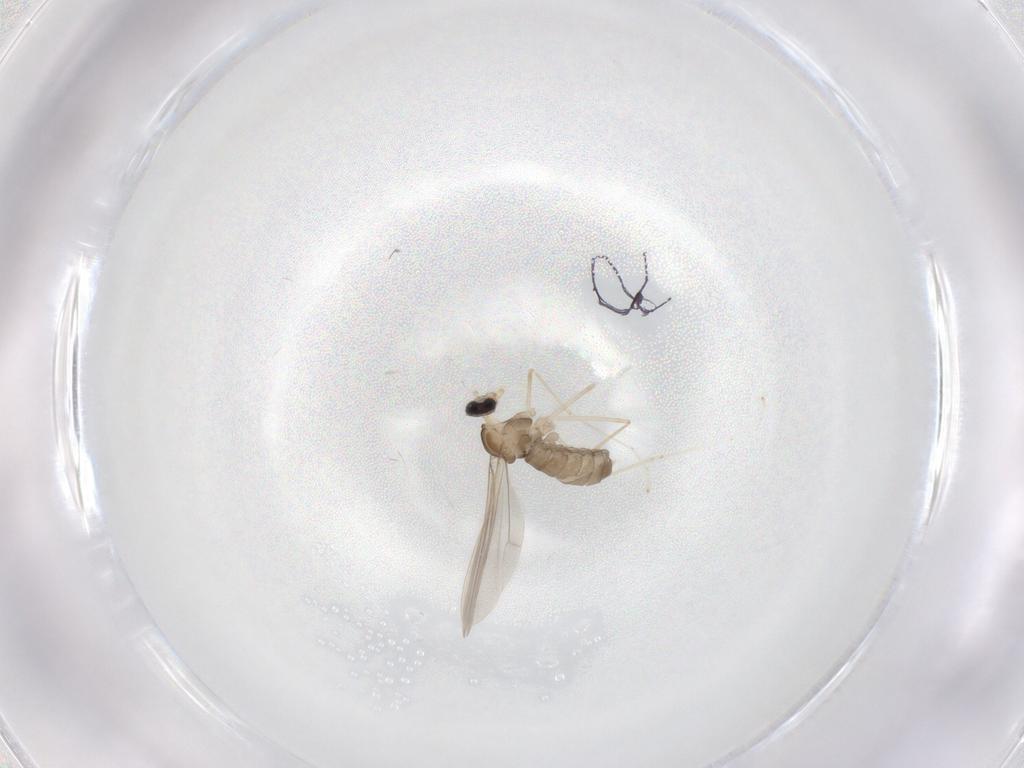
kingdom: Animalia
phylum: Arthropoda
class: Insecta
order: Diptera
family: Cecidomyiidae
